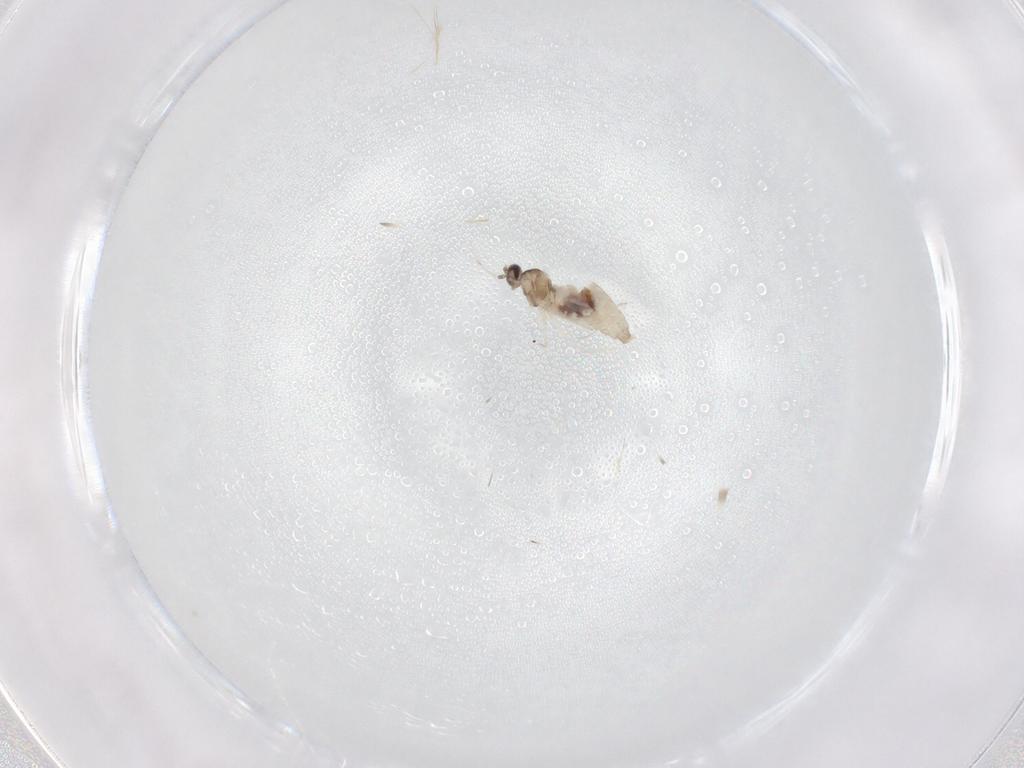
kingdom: Animalia
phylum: Arthropoda
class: Insecta
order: Diptera
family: Cecidomyiidae
